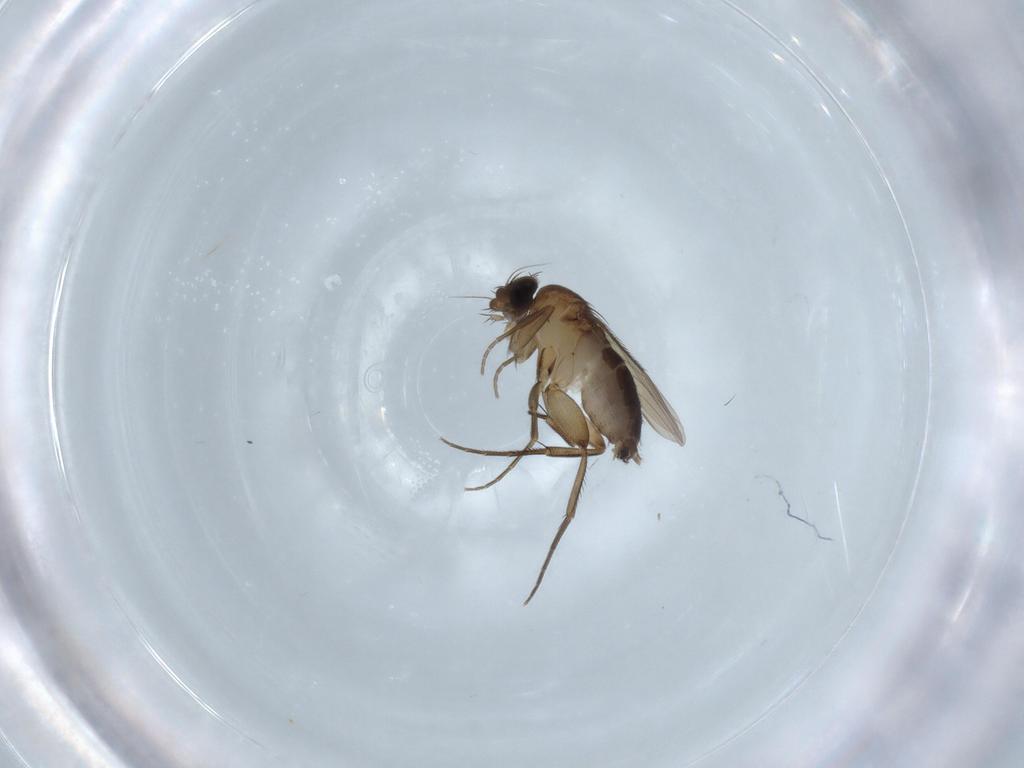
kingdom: Animalia
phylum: Arthropoda
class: Insecta
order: Diptera
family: Phoridae
